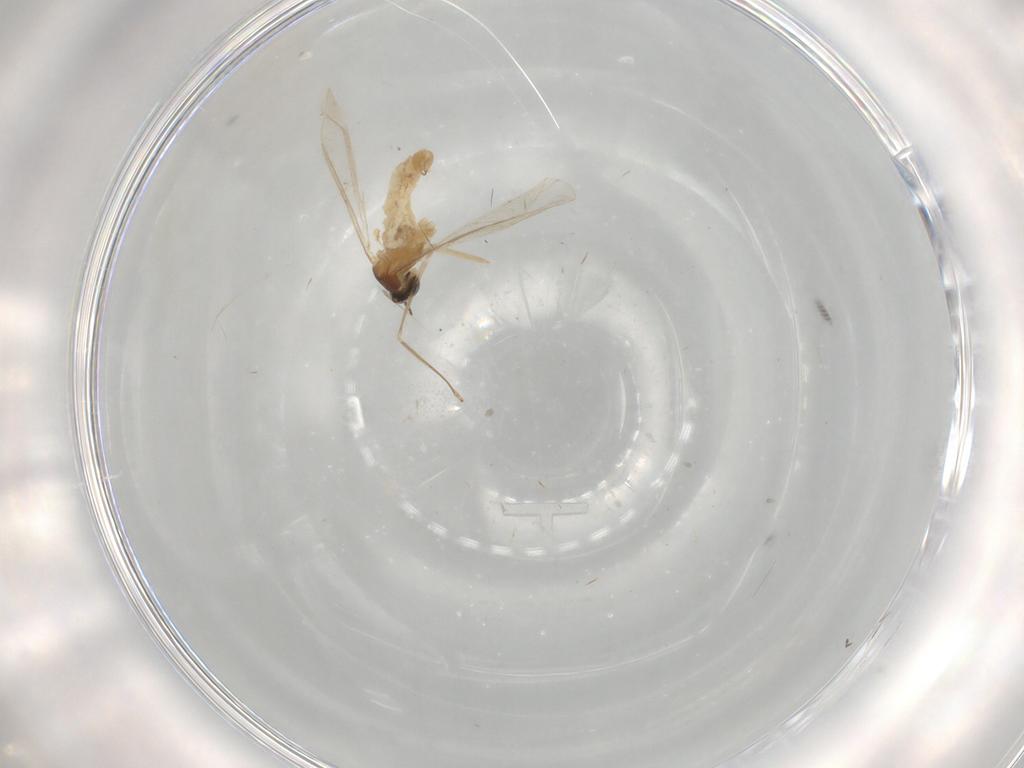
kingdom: Animalia
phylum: Arthropoda
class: Insecta
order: Diptera
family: Cecidomyiidae
